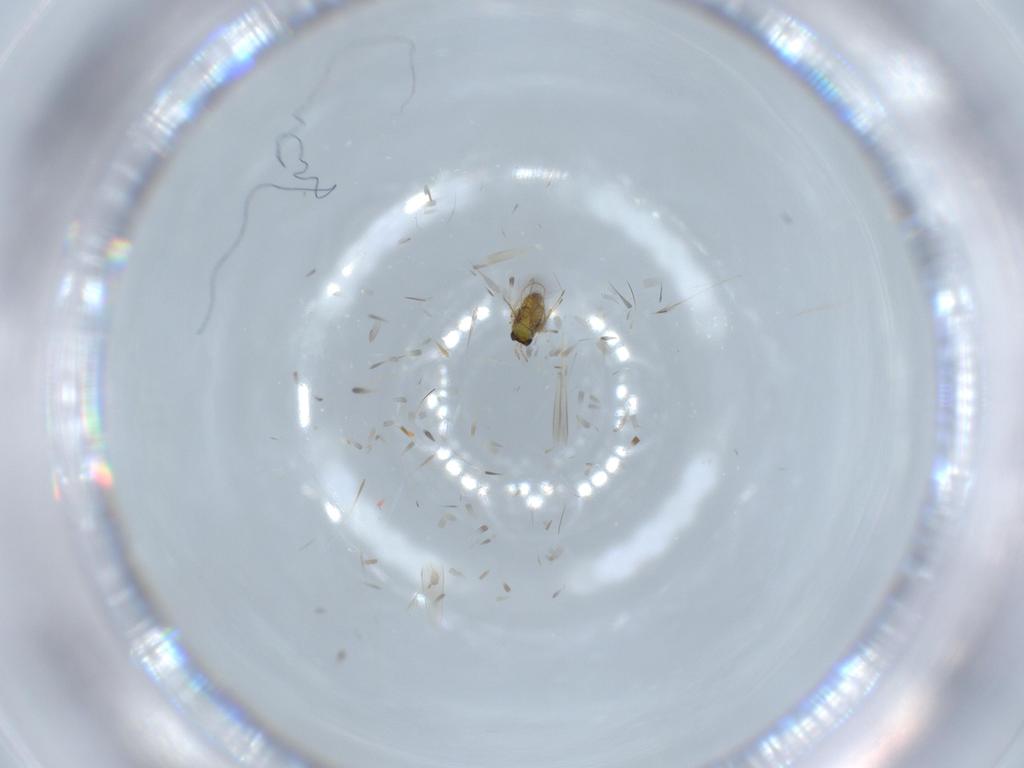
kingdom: Animalia
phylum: Arthropoda
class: Insecta
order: Hymenoptera
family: Trichogrammatidae
